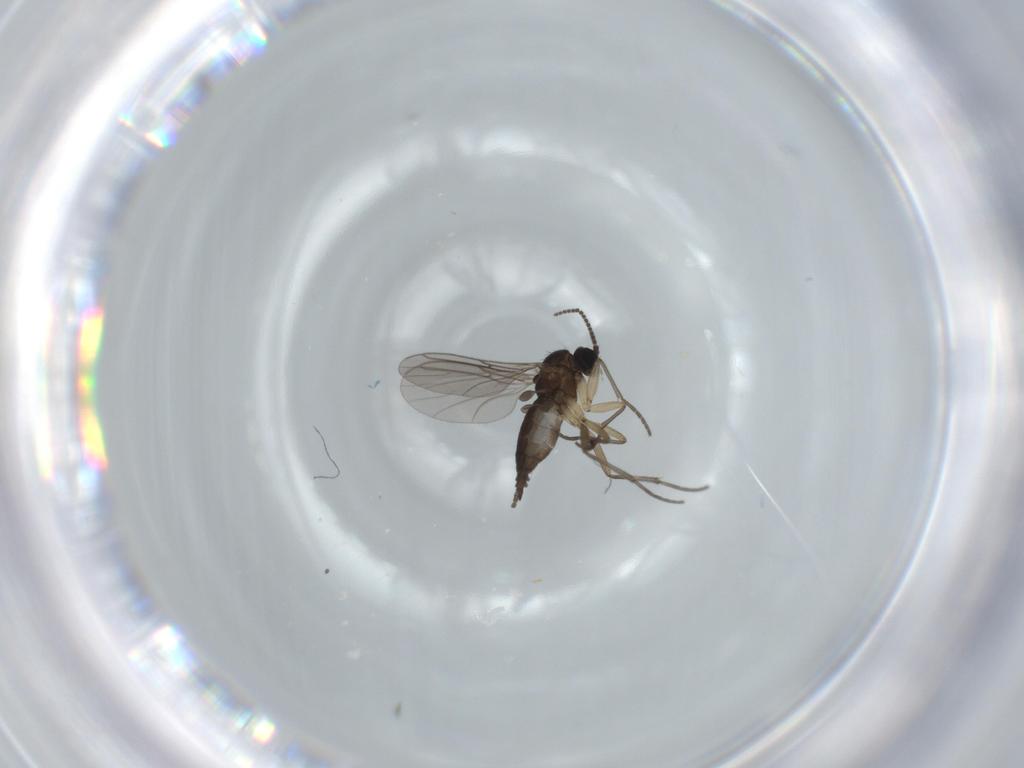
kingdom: Animalia
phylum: Arthropoda
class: Insecta
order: Diptera
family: Sciaridae
